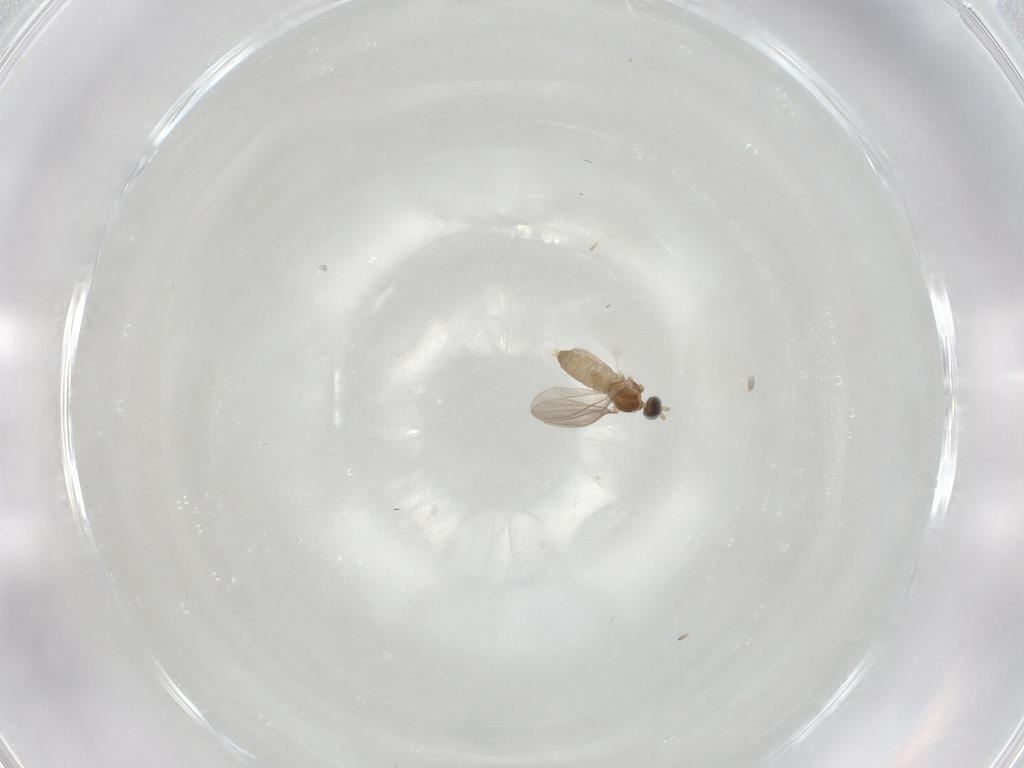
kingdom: Animalia
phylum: Arthropoda
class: Insecta
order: Diptera
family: Cecidomyiidae
